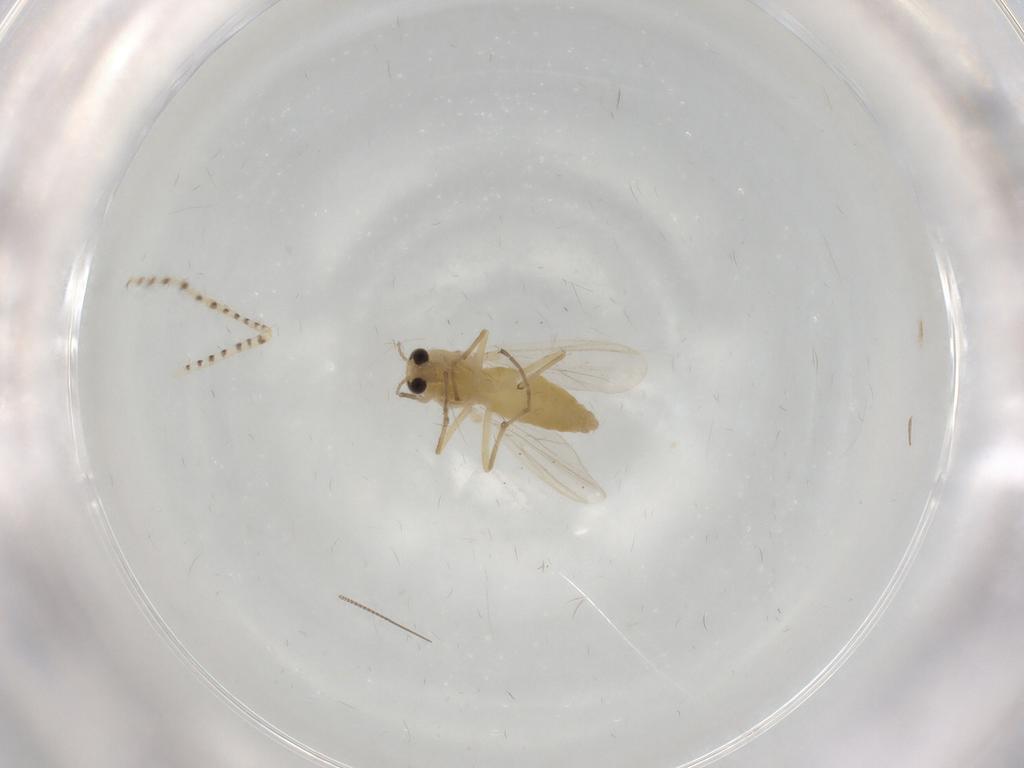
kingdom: Animalia
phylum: Arthropoda
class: Insecta
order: Diptera
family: Chironomidae
